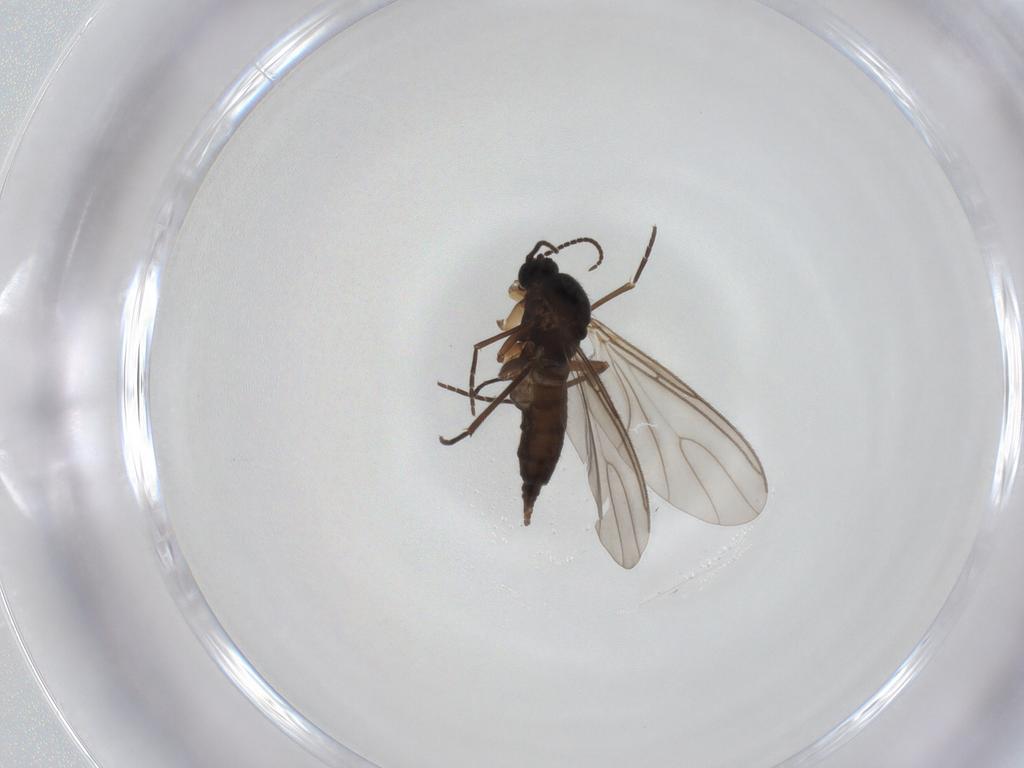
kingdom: Animalia
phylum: Arthropoda
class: Insecta
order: Diptera
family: Sciaridae
